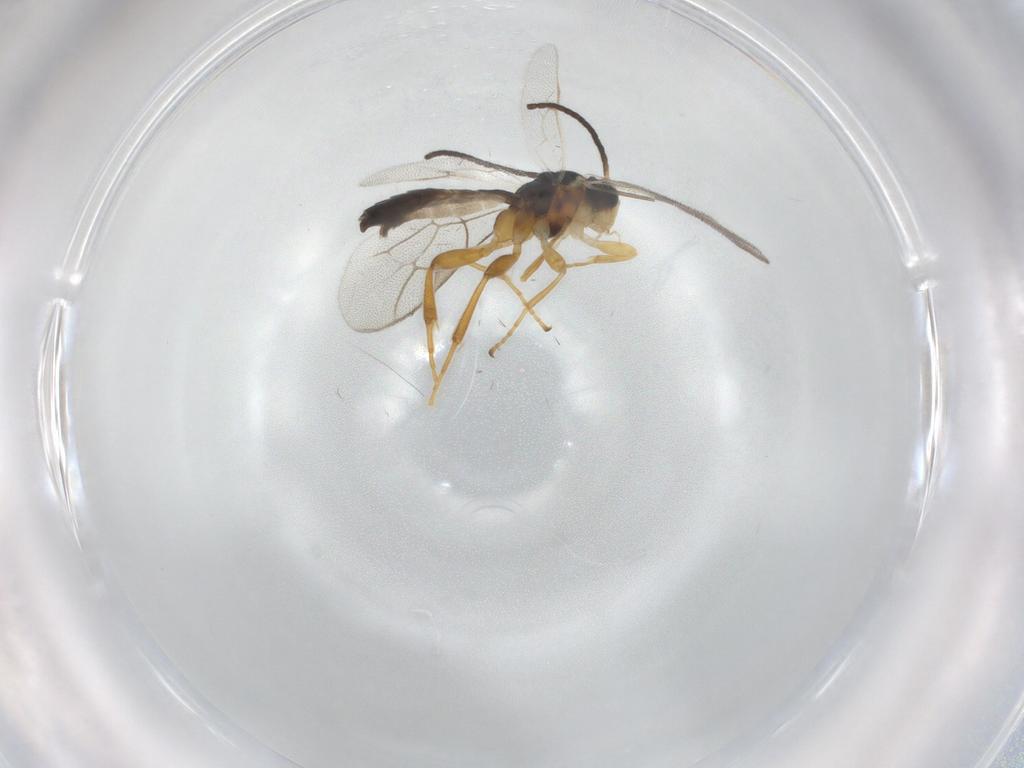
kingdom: Animalia
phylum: Arthropoda
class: Insecta
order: Hymenoptera
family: Ichneumonidae
